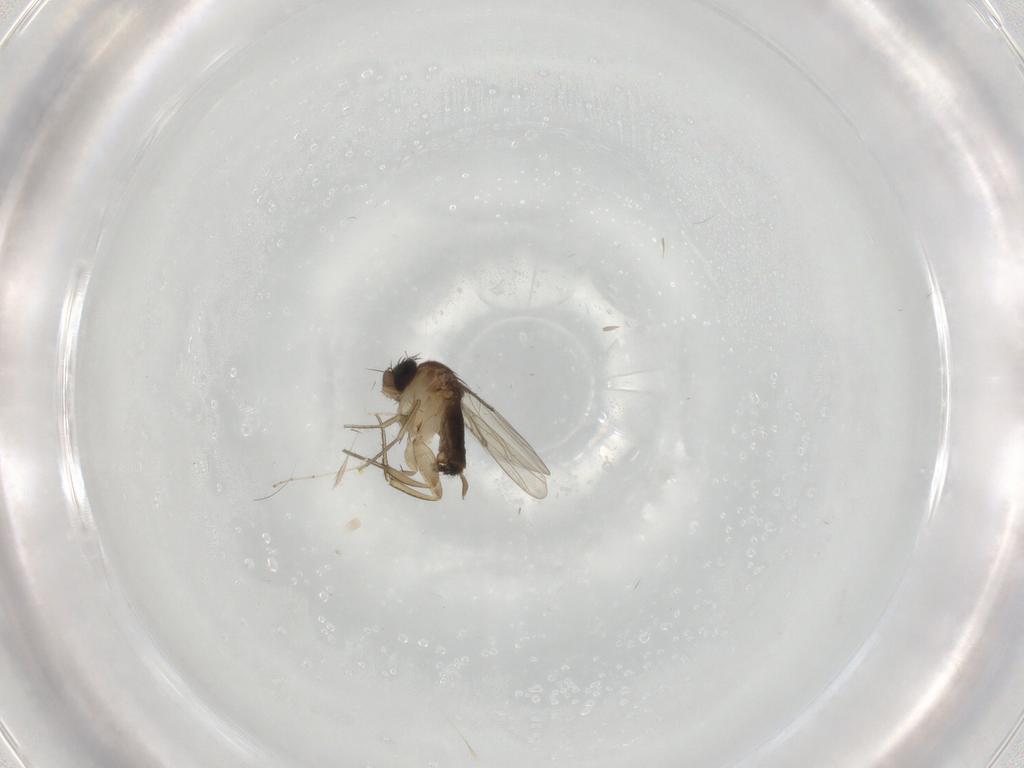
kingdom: Animalia
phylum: Arthropoda
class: Insecta
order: Diptera
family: Cecidomyiidae
